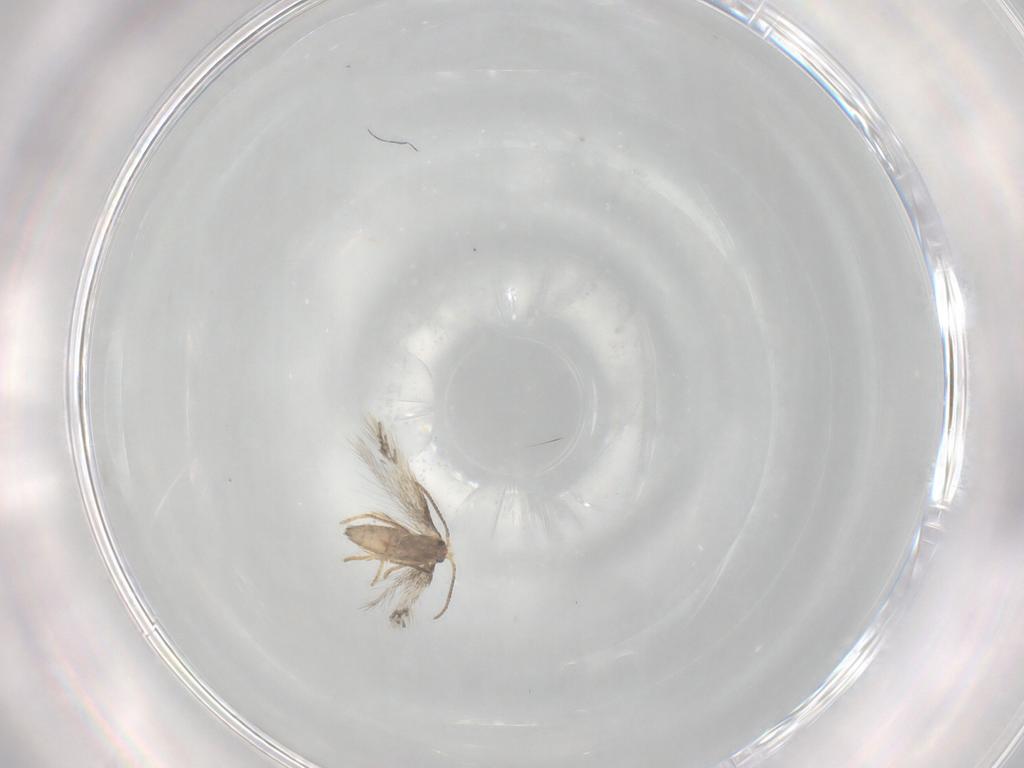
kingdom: Animalia
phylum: Arthropoda
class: Insecta
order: Lepidoptera
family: Nepticulidae
